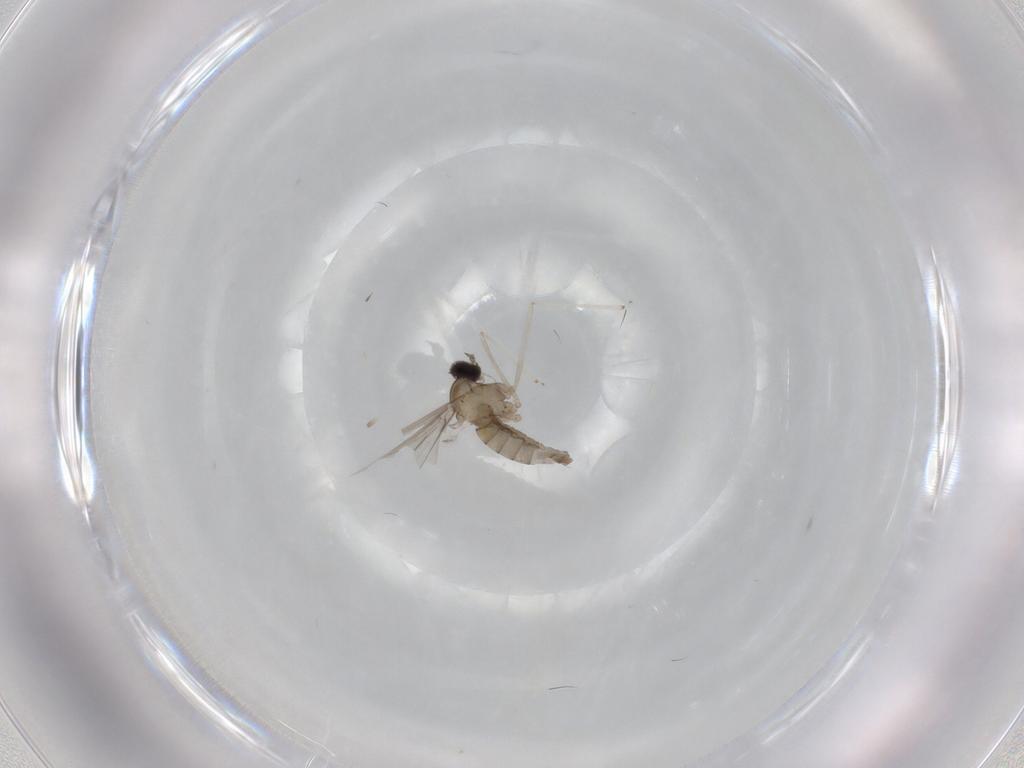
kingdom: Animalia
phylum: Arthropoda
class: Insecta
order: Diptera
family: Cecidomyiidae
